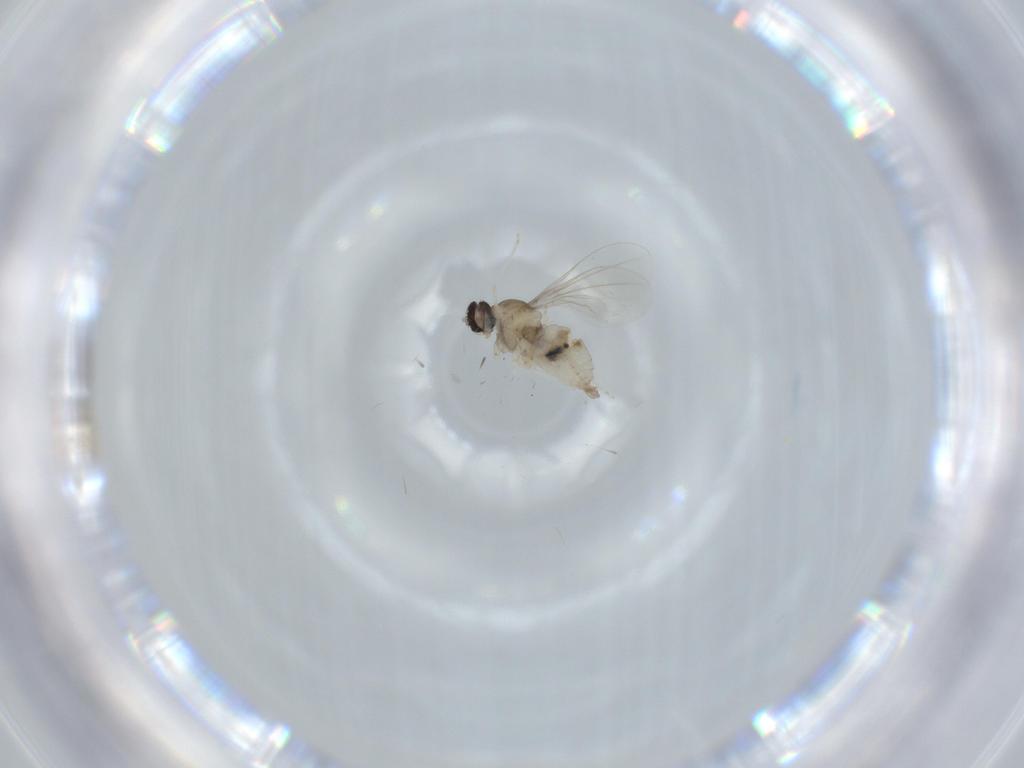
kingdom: Animalia
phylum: Arthropoda
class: Insecta
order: Diptera
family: Cecidomyiidae
